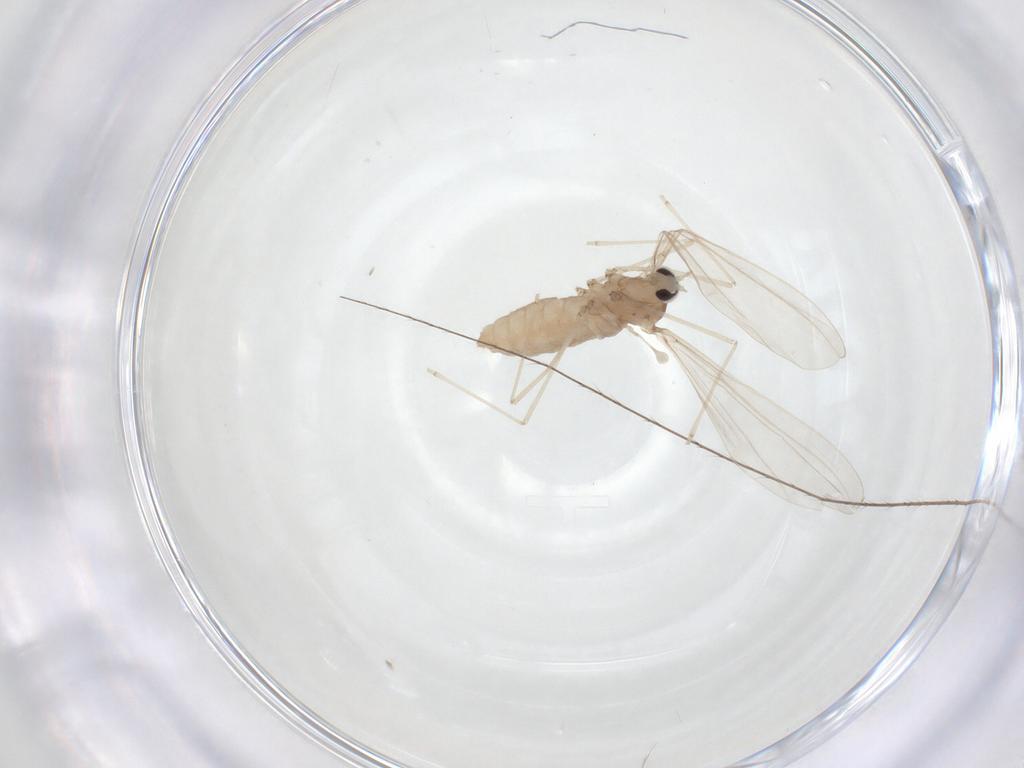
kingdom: Animalia
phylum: Arthropoda
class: Insecta
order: Diptera
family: Cecidomyiidae
